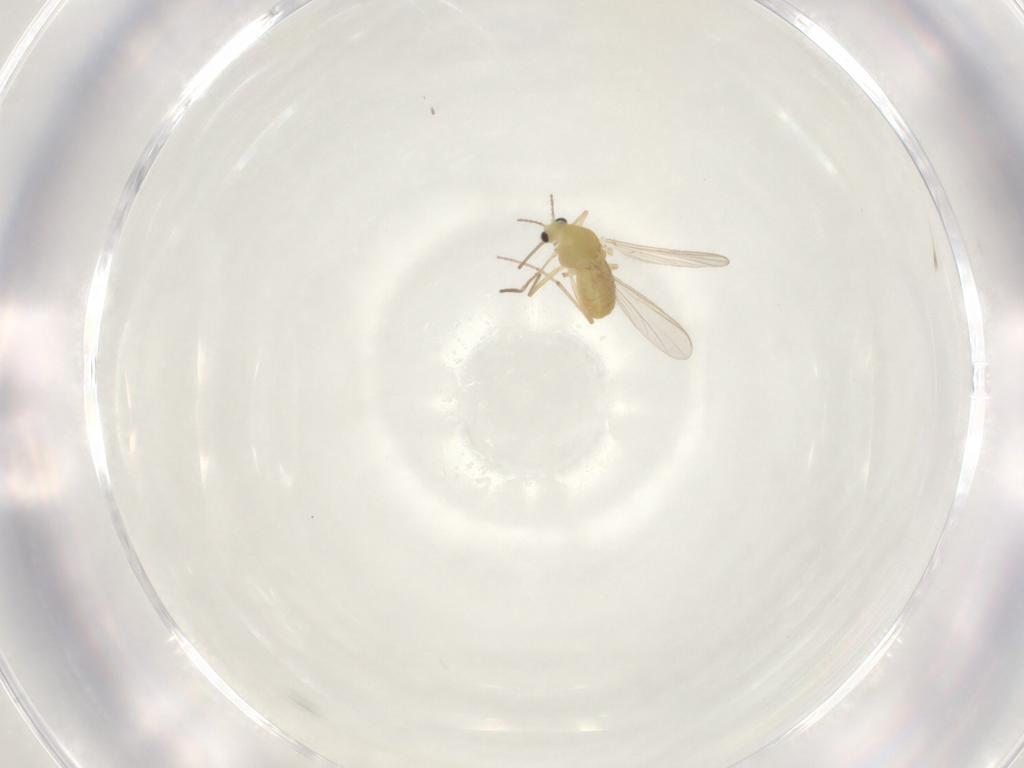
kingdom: Animalia
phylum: Arthropoda
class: Insecta
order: Diptera
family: Chironomidae
